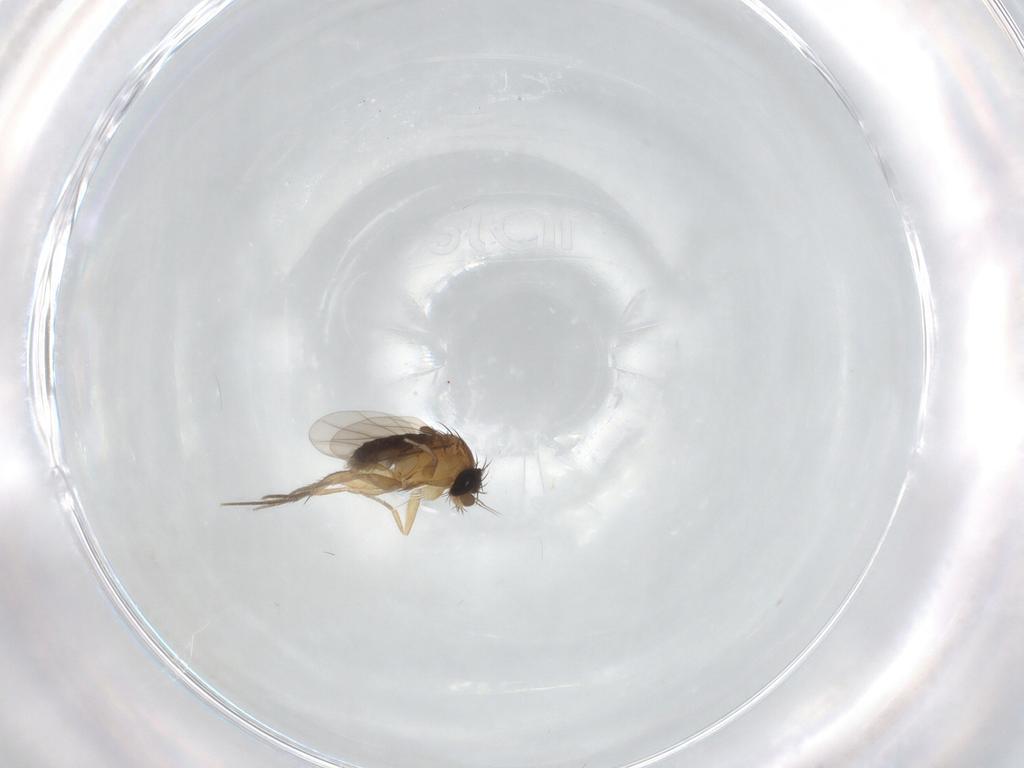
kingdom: Animalia
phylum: Arthropoda
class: Insecta
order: Diptera
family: Phoridae
